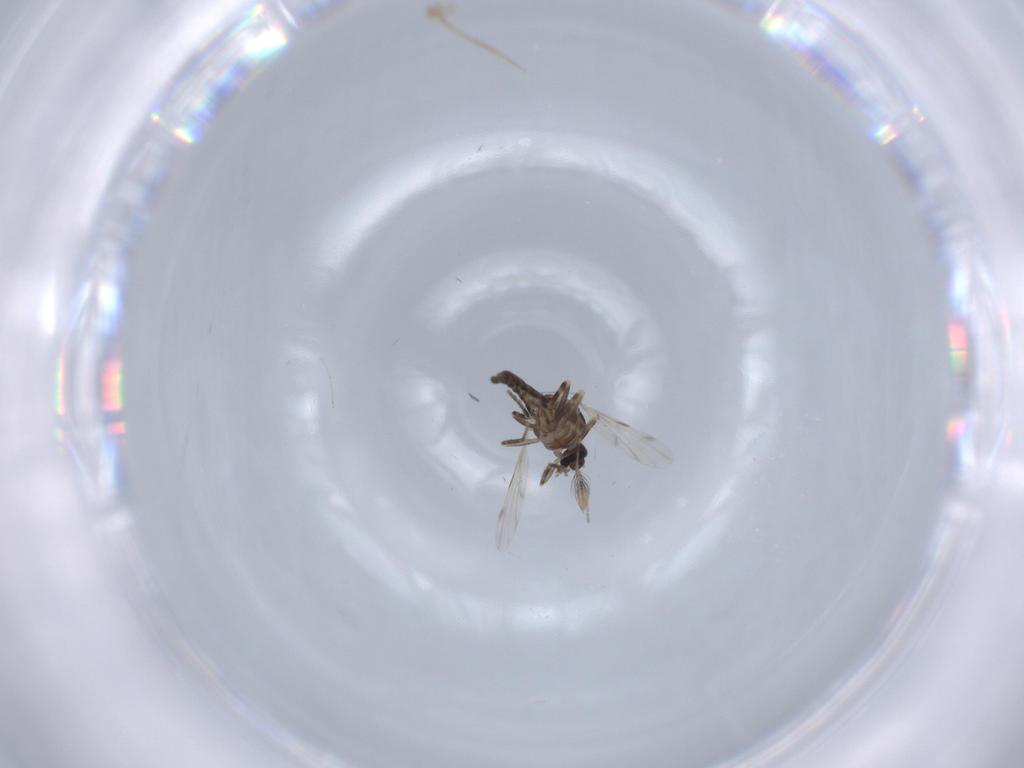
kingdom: Animalia
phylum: Arthropoda
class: Insecta
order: Diptera
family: Ceratopogonidae
